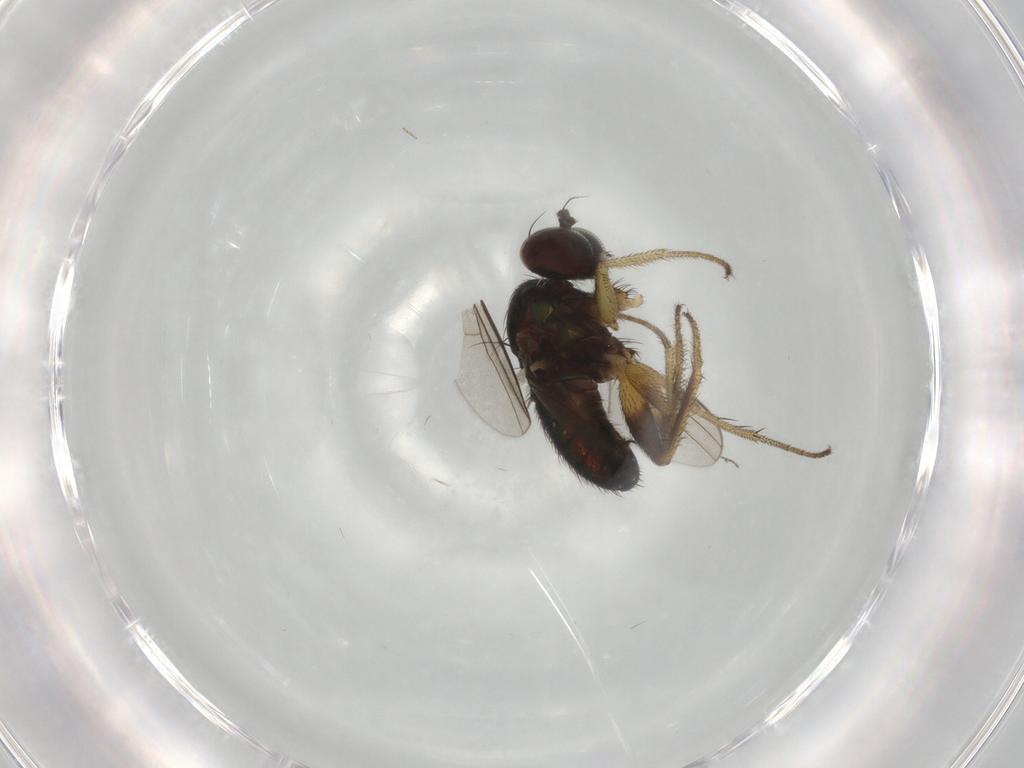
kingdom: Animalia
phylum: Arthropoda
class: Insecta
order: Diptera
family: Dolichopodidae
